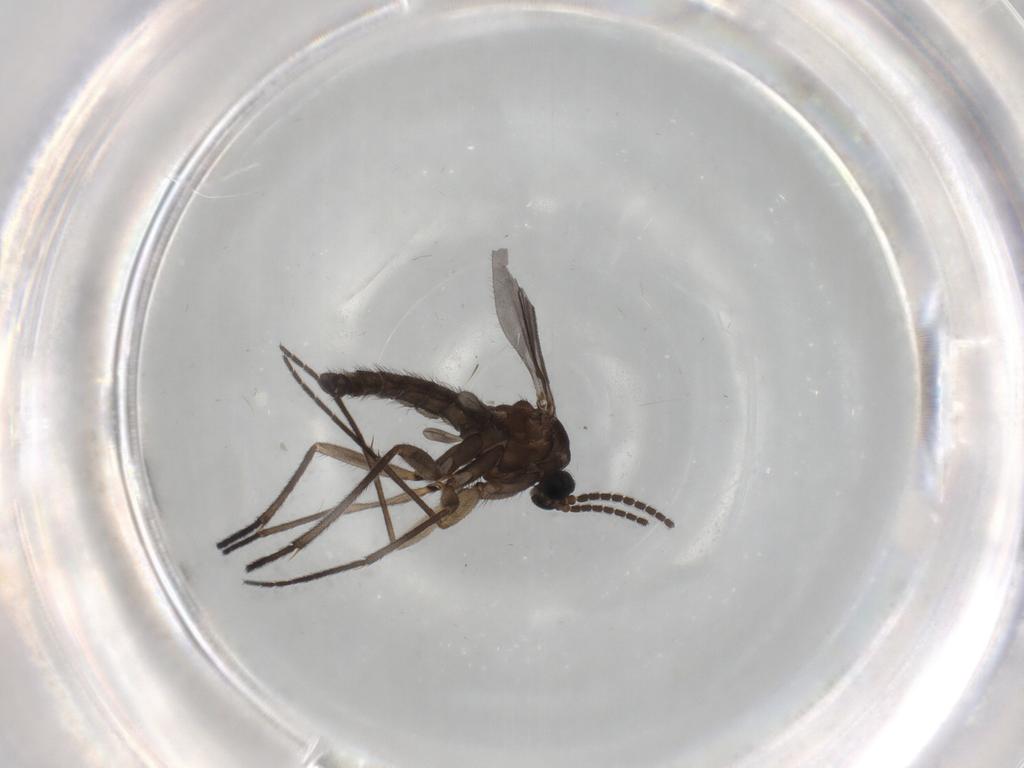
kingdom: Animalia
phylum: Arthropoda
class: Insecta
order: Diptera
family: Sciaridae
